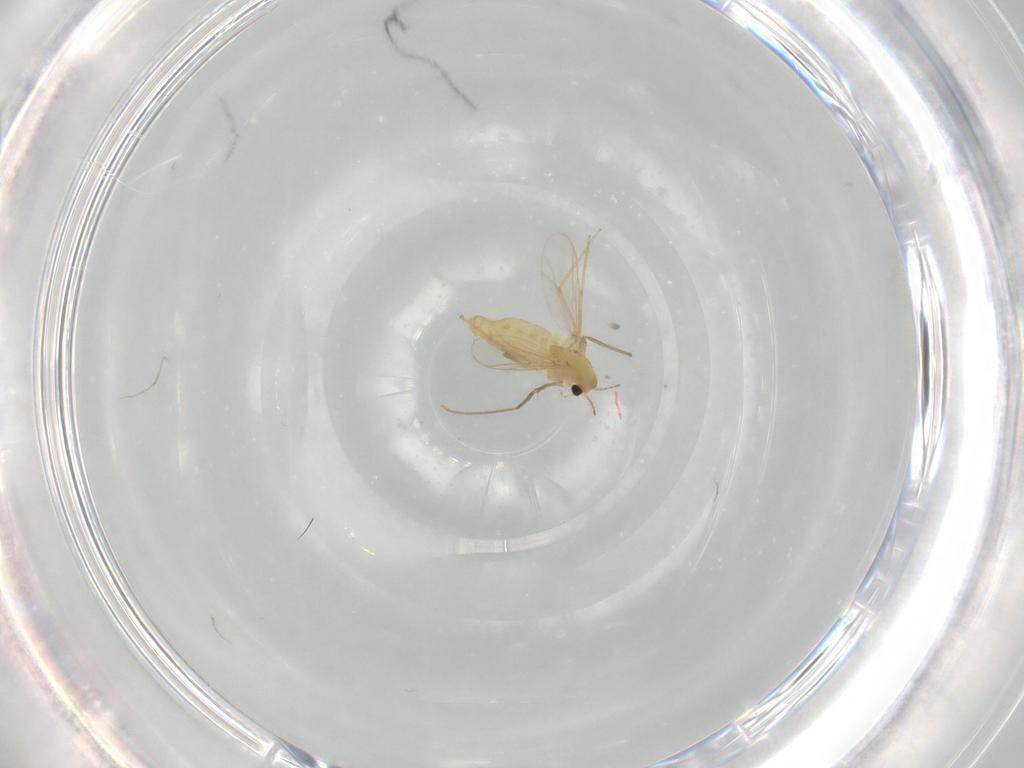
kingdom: Animalia
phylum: Arthropoda
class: Insecta
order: Diptera
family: Chironomidae
